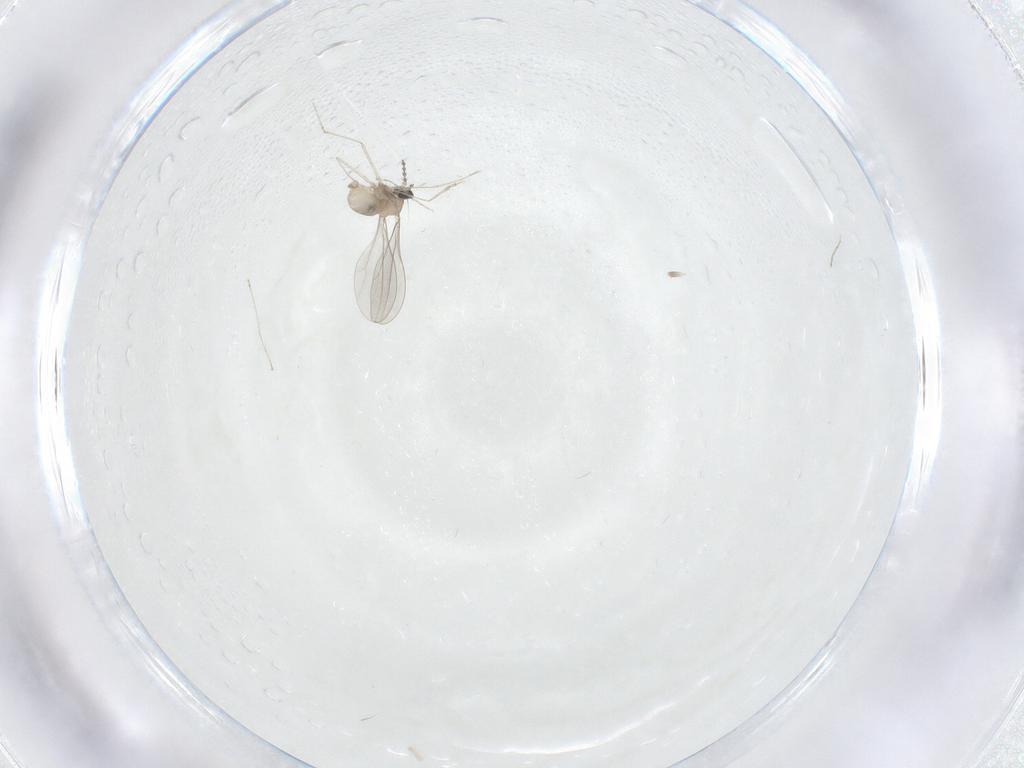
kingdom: Animalia
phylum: Arthropoda
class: Insecta
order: Diptera
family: Cecidomyiidae
